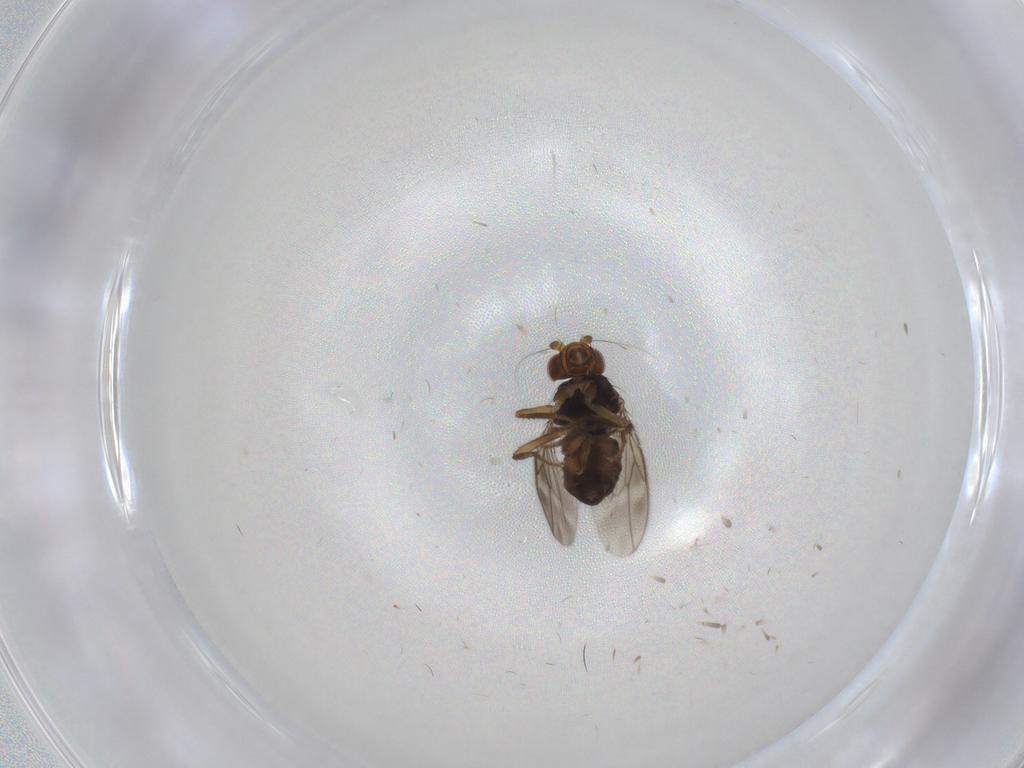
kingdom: Animalia
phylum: Arthropoda
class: Insecta
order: Diptera
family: Sphaeroceridae
